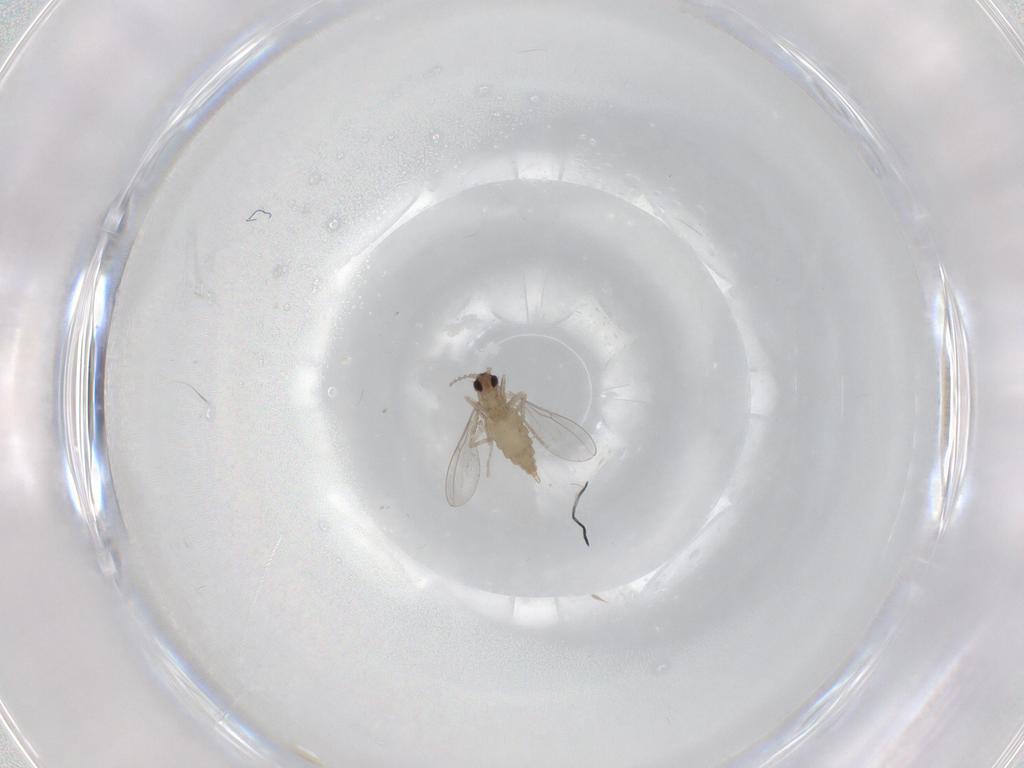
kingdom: Animalia
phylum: Arthropoda
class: Insecta
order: Diptera
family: Cecidomyiidae
